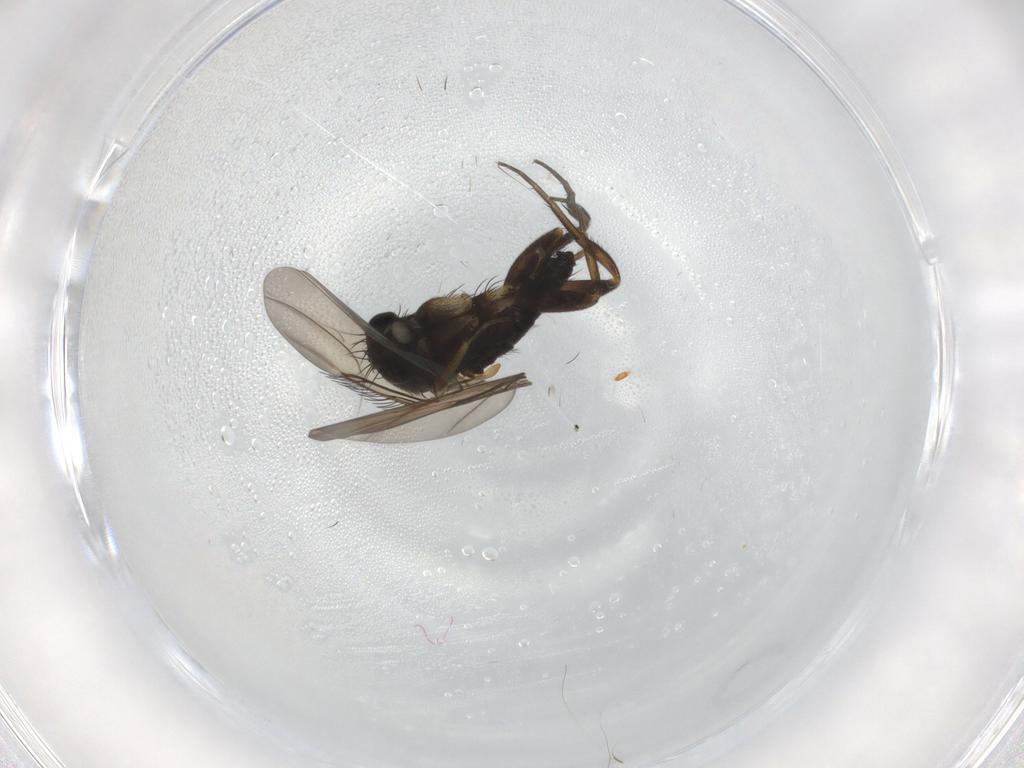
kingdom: Animalia
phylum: Arthropoda
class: Insecta
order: Diptera
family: Phoridae
